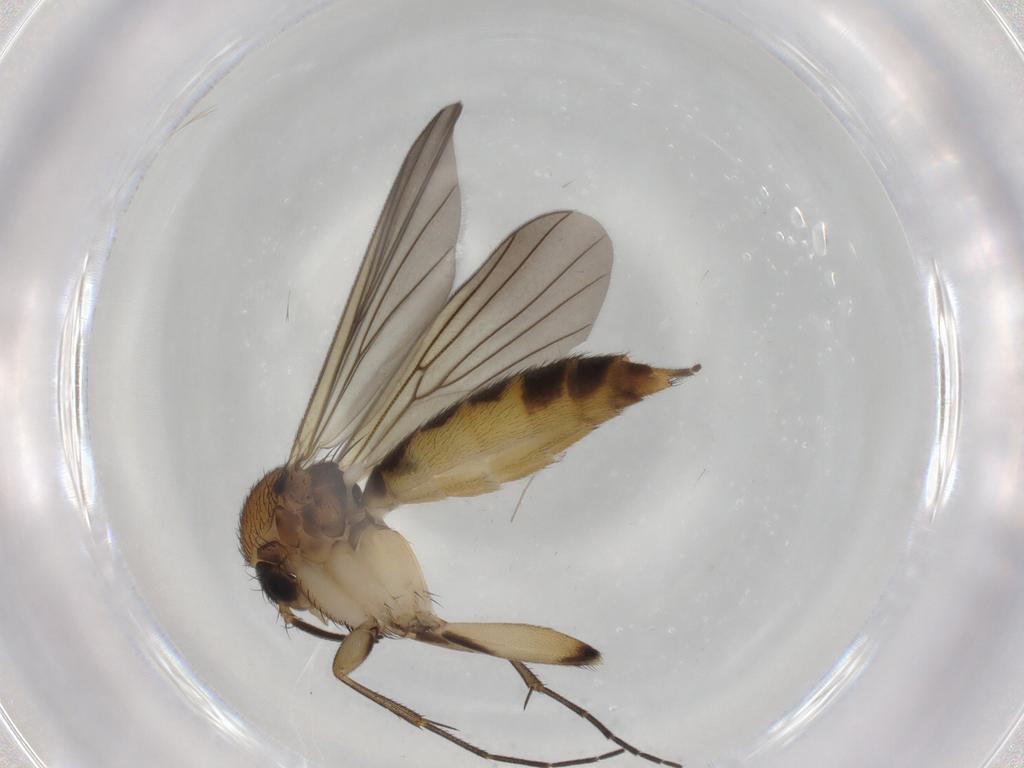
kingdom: Animalia
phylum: Arthropoda
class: Insecta
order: Diptera
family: Mycetophilidae
